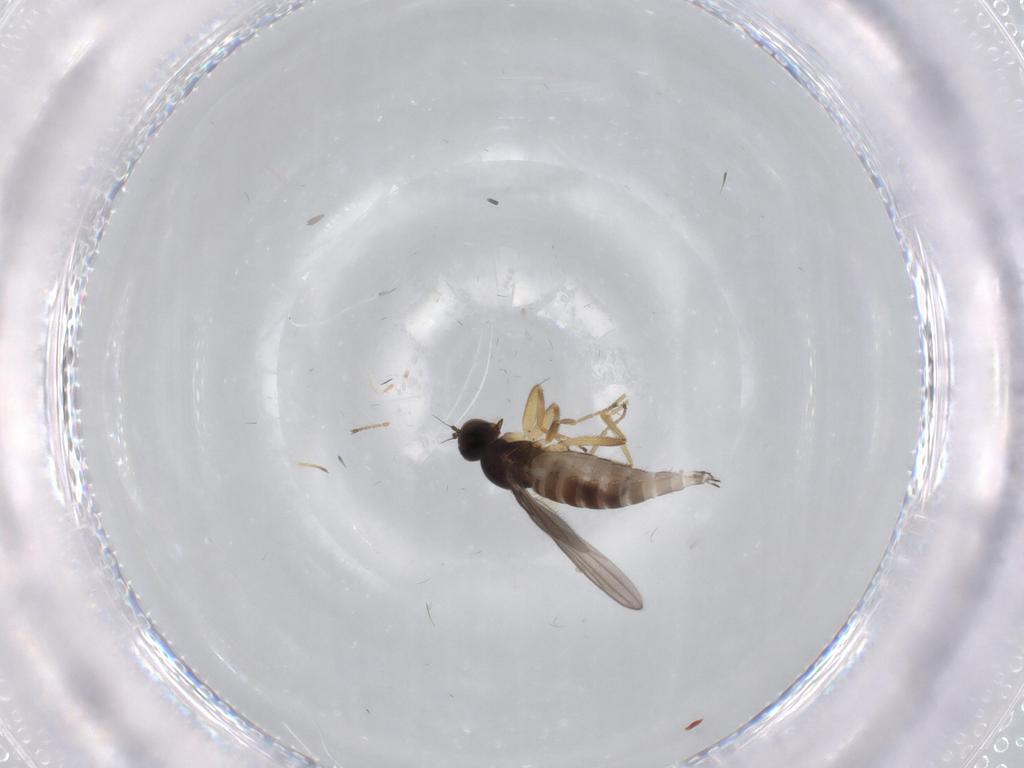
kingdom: Animalia
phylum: Arthropoda
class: Insecta
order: Diptera
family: Hybotidae
